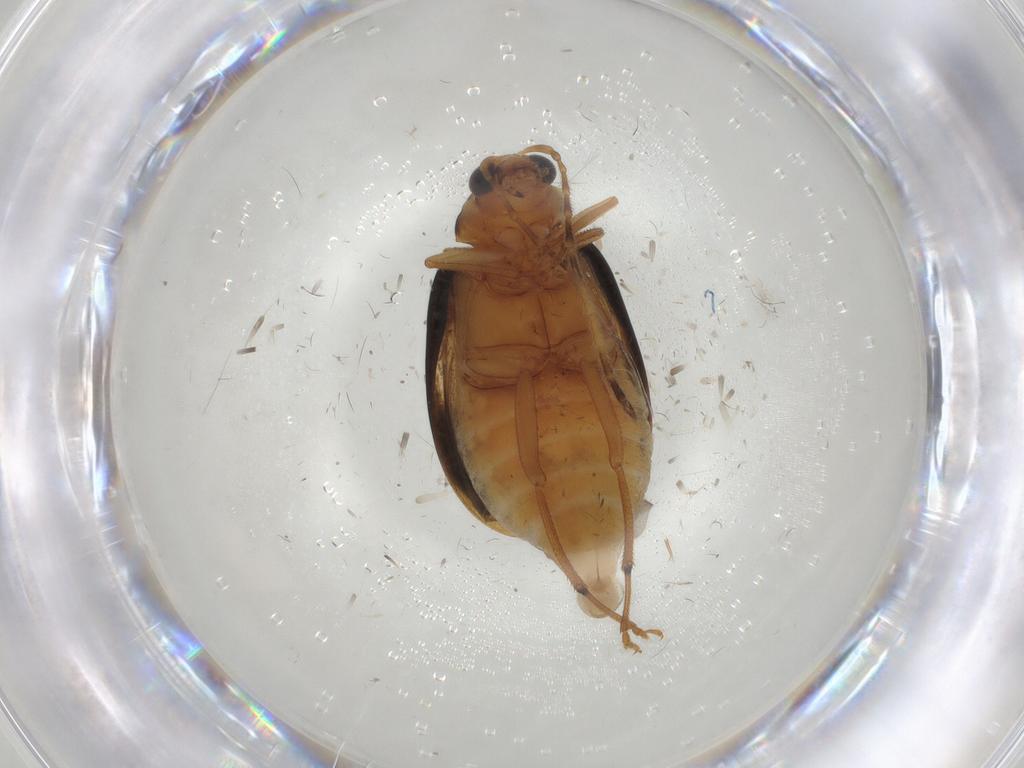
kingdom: Animalia
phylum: Arthropoda
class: Insecta
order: Coleoptera
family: Chrysomelidae
